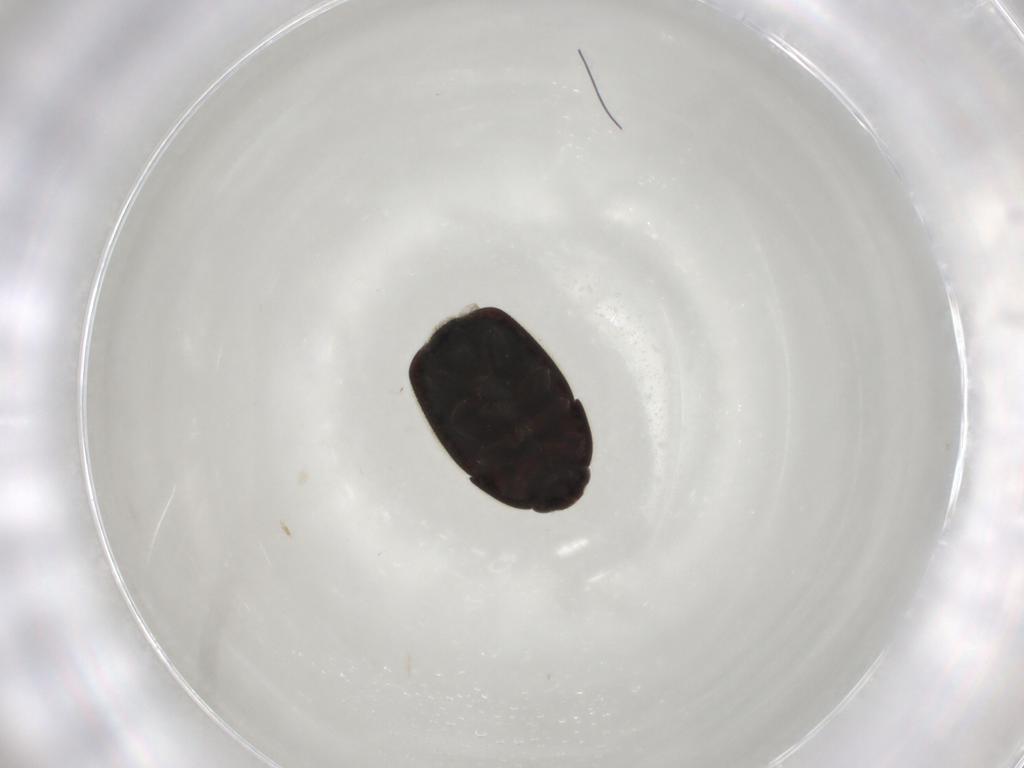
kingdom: Animalia
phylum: Arthropoda
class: Insecta
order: Coleoptera
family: Nitidulidae
